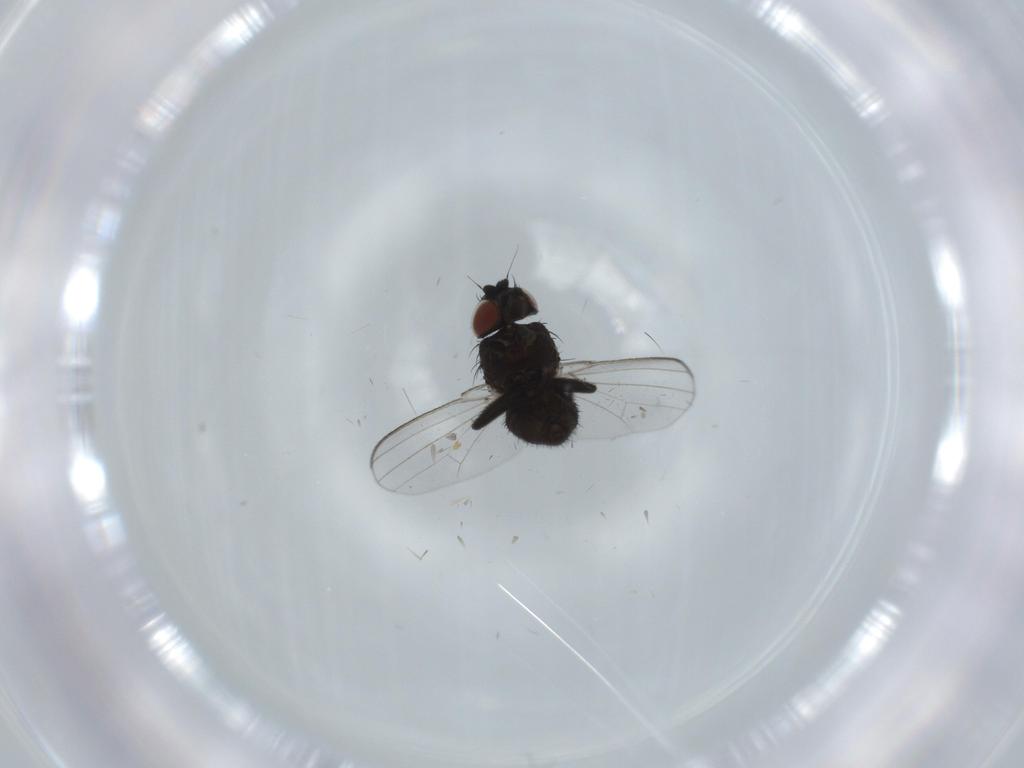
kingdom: Animalia
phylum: Arthropoda
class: Insecta
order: Diptera
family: Milichiidae
